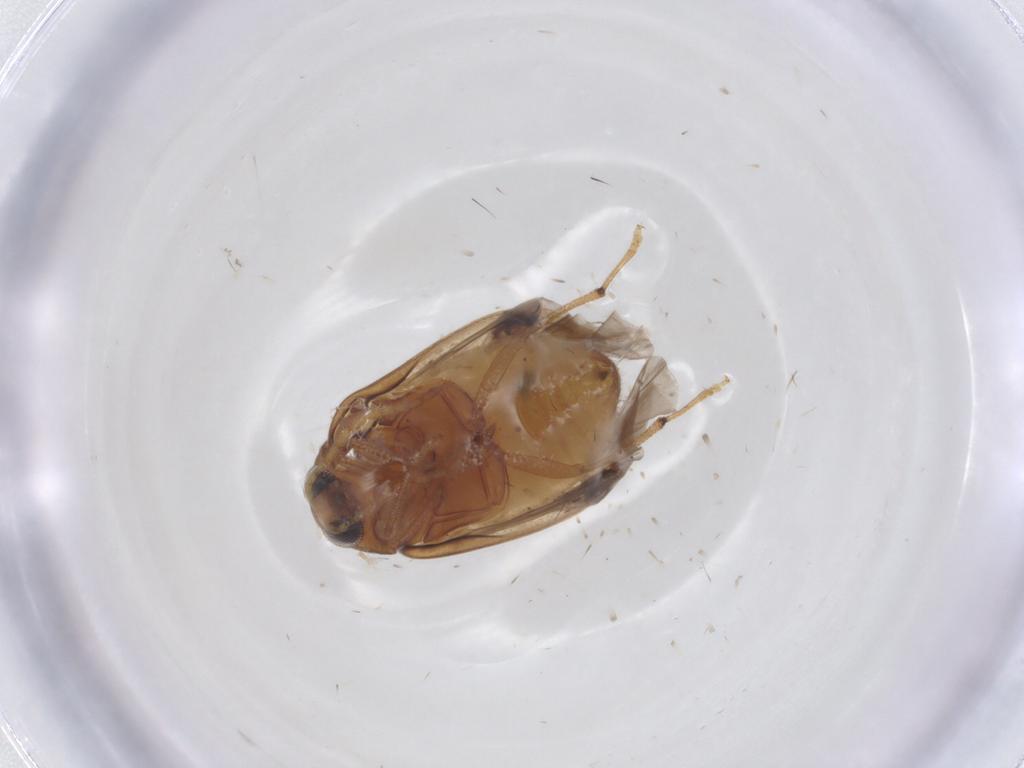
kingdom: Animalia
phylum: Arthropoda
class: Insecta
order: Coleoptera
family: Chrysomelidae
